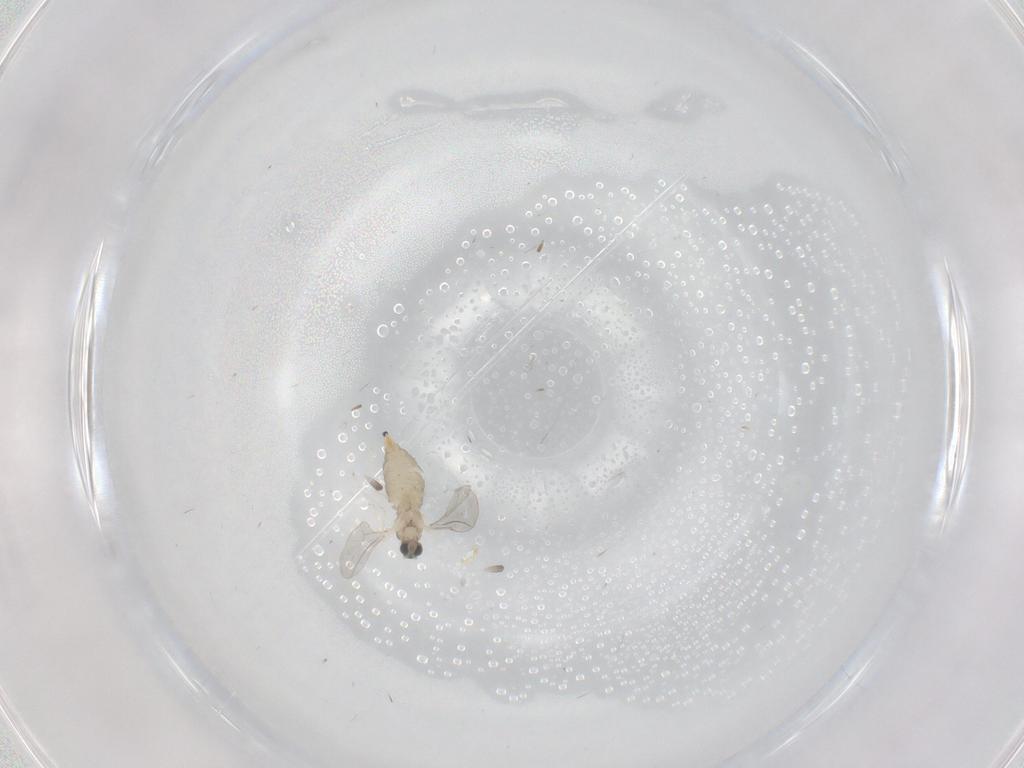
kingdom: Animalia
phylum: Arthropoda
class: Insecta
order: Diptera
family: Cecidomyiidae
